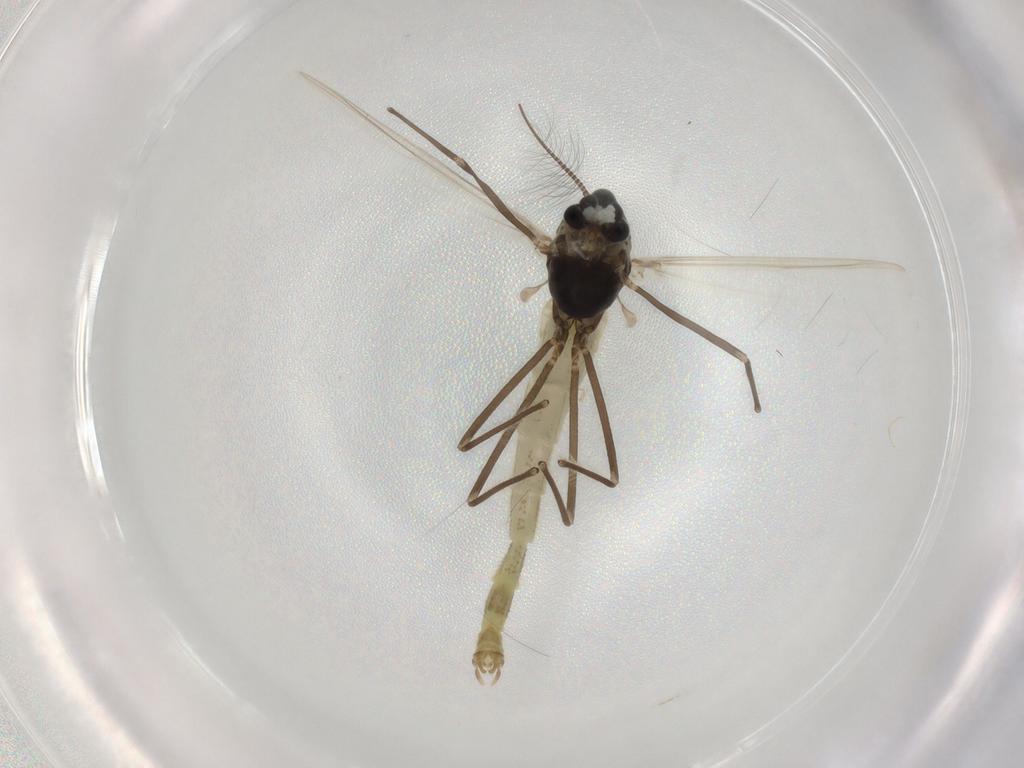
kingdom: Animalia
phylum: Arthropoda
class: Insecta
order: Diptera
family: Chironomidae
